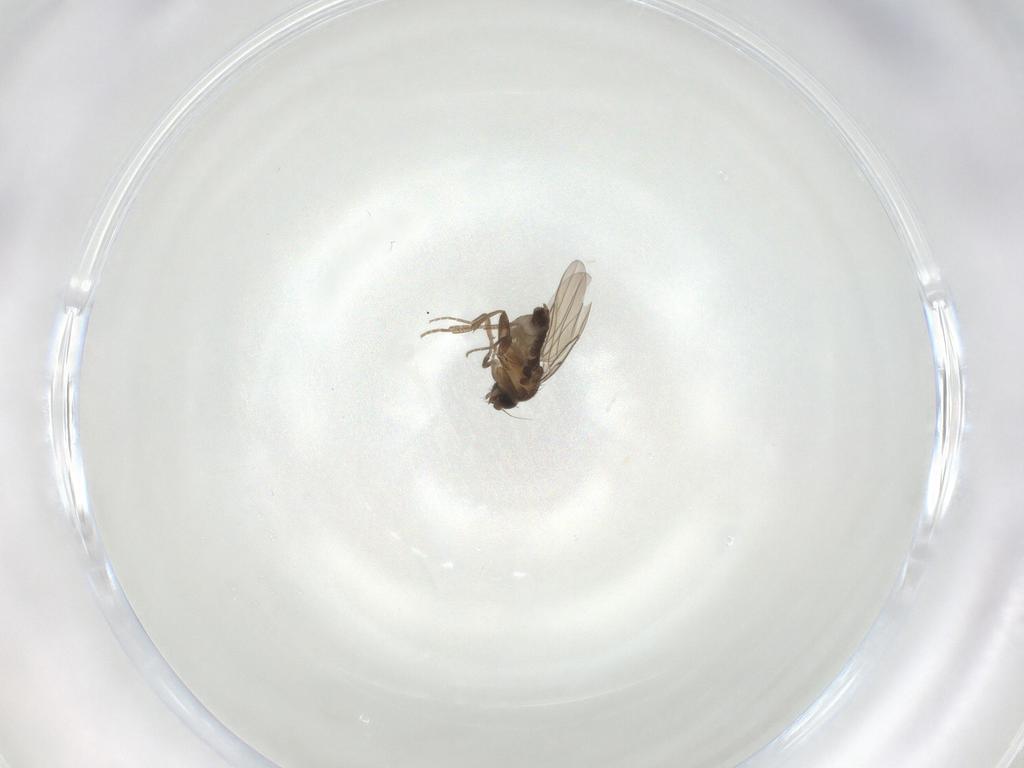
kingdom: Animalia
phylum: Arthropoda
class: Insecta
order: Diptera
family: Phoridae
